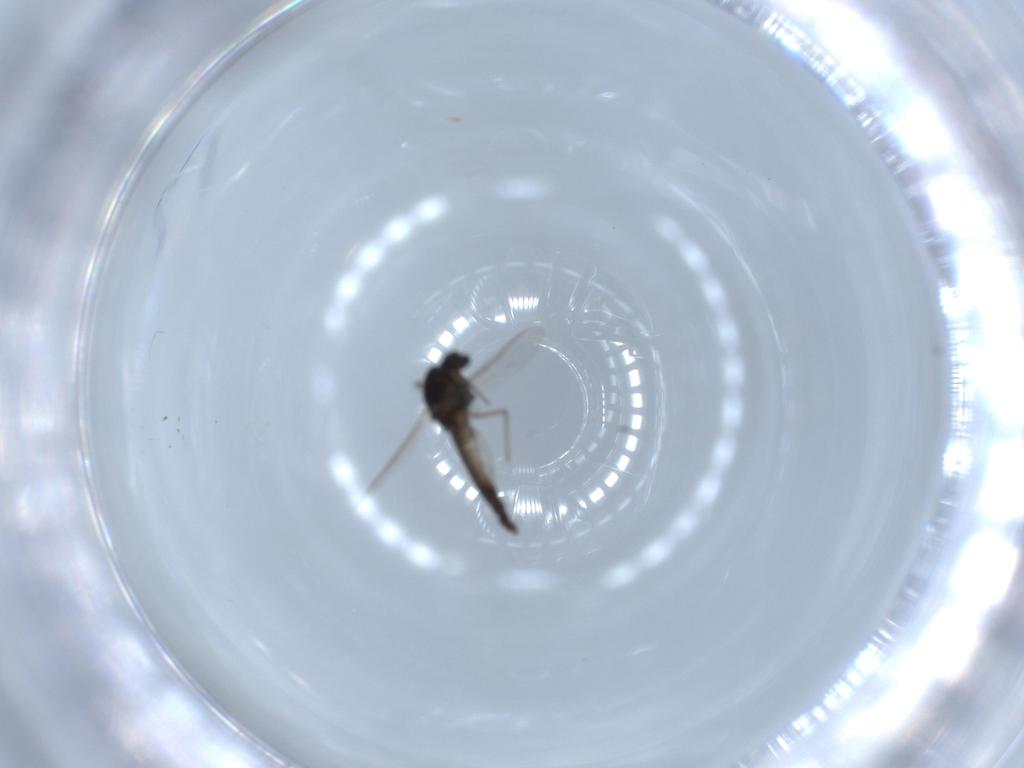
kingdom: Animalia
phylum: Arthropoda
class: Insecta
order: Diptera
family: Chironomidae
